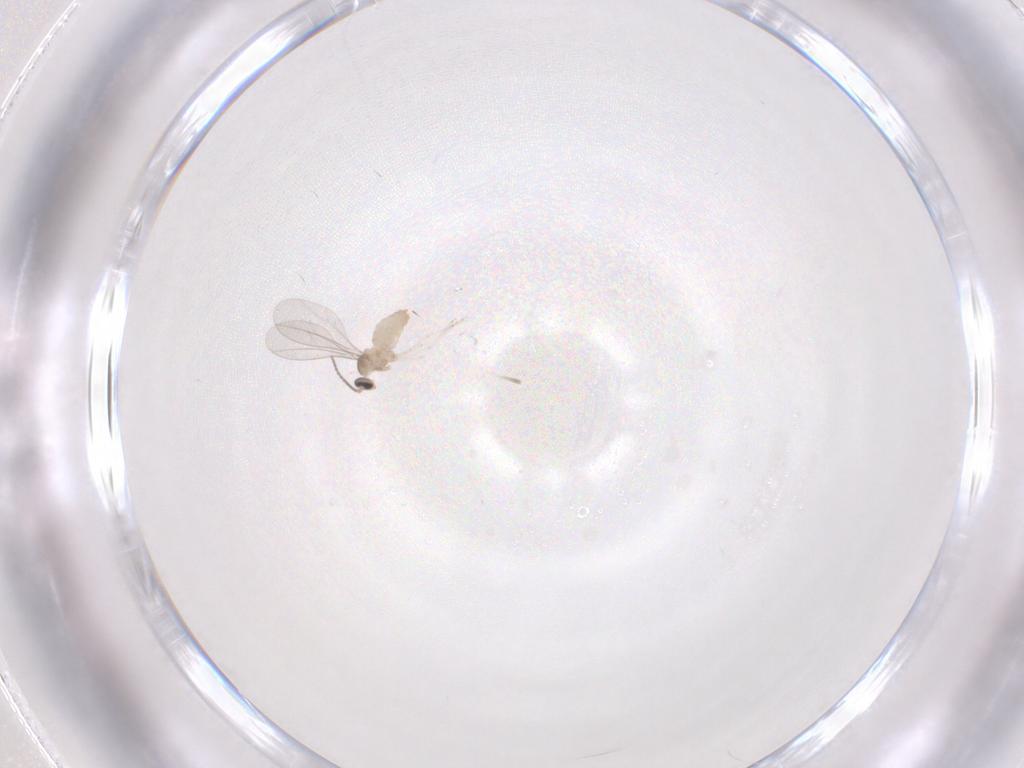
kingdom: Animalia
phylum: Arthropoda
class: Insecta
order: Diptera
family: Cecidomyiidae
